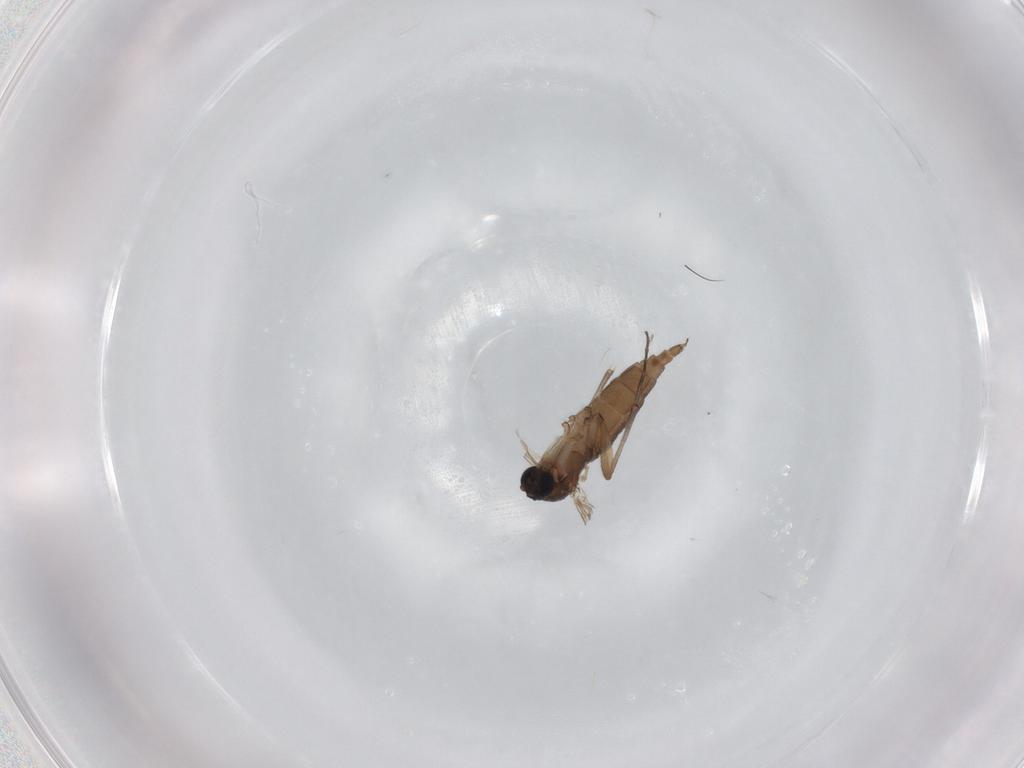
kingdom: Animalia
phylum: Arthropoda
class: Insecta
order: Diptera
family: Sciaridae
